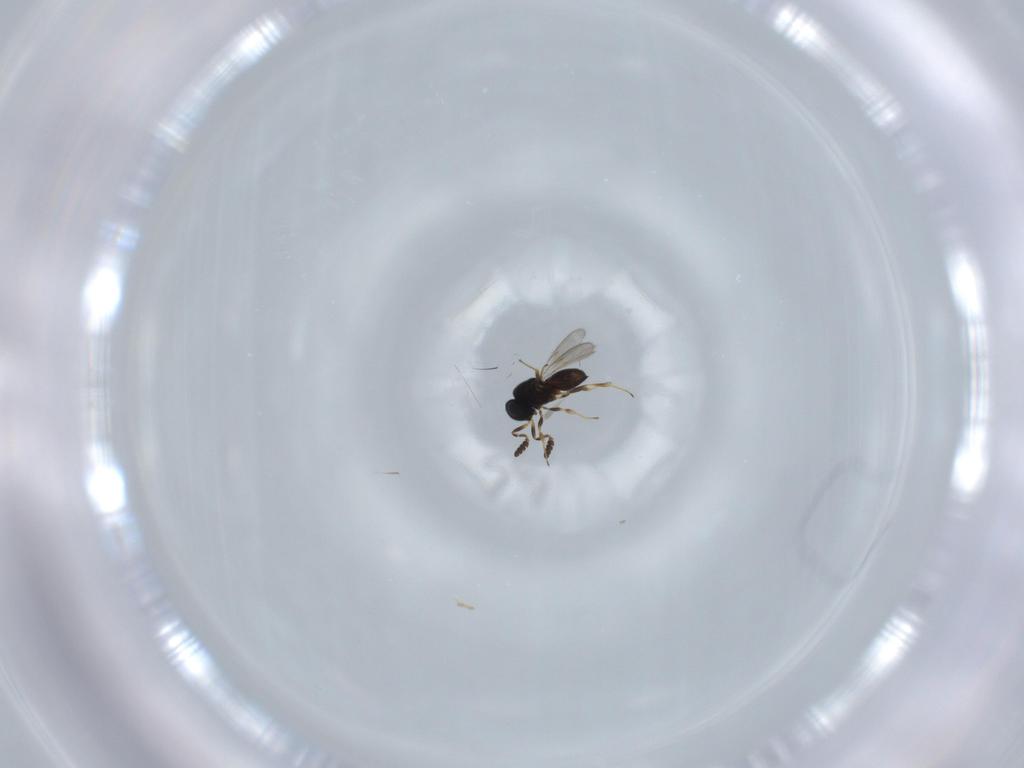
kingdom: Animalia
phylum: Arthropoda
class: Insecta
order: Hymenoptera
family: Scelionidae
